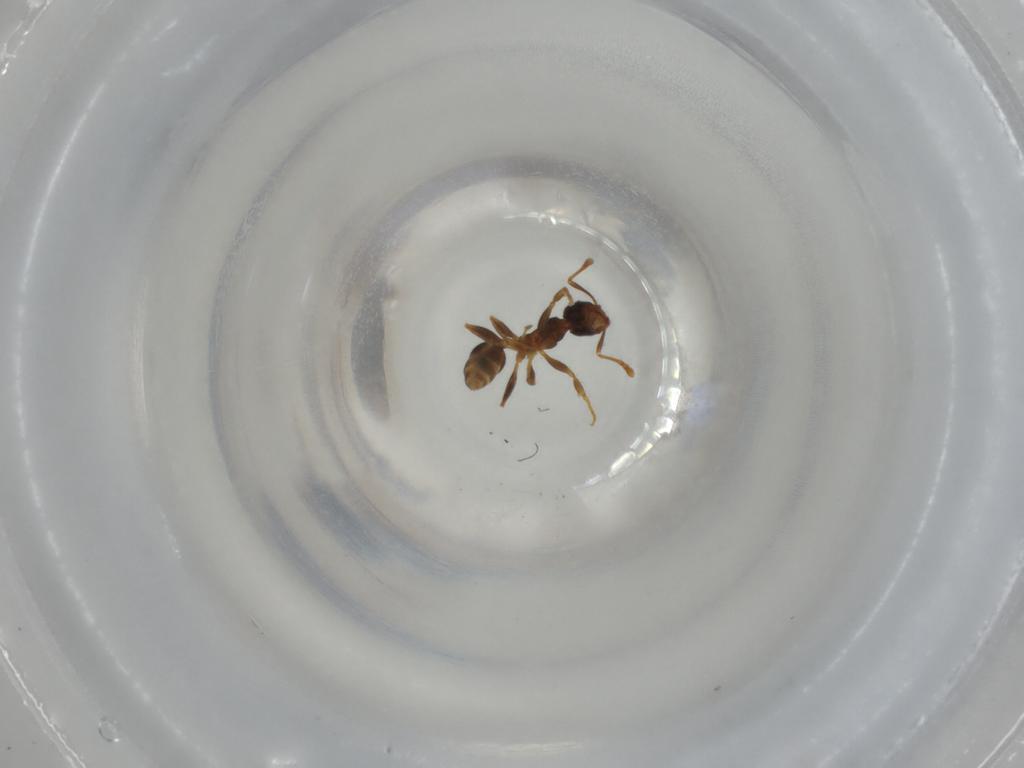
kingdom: Animalia
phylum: Arthropoda
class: Insecta
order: Hymenoptera
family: Formicidae
